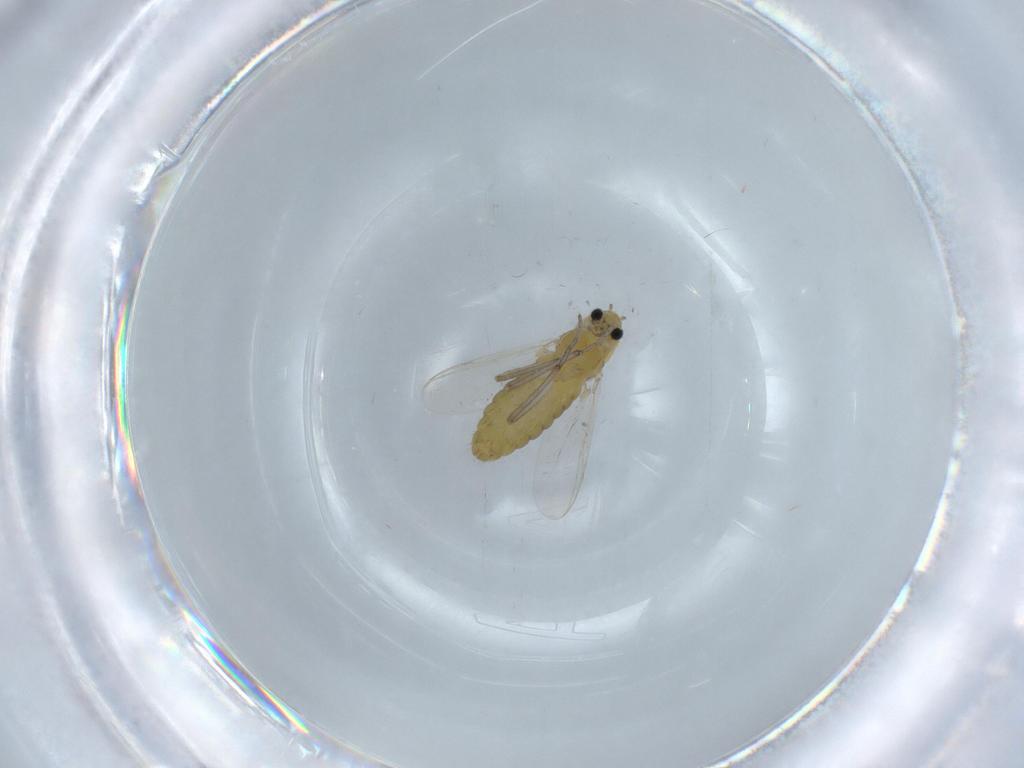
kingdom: Animalia
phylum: Arthropoda
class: Insecta
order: Diptera
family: Chironomidae
